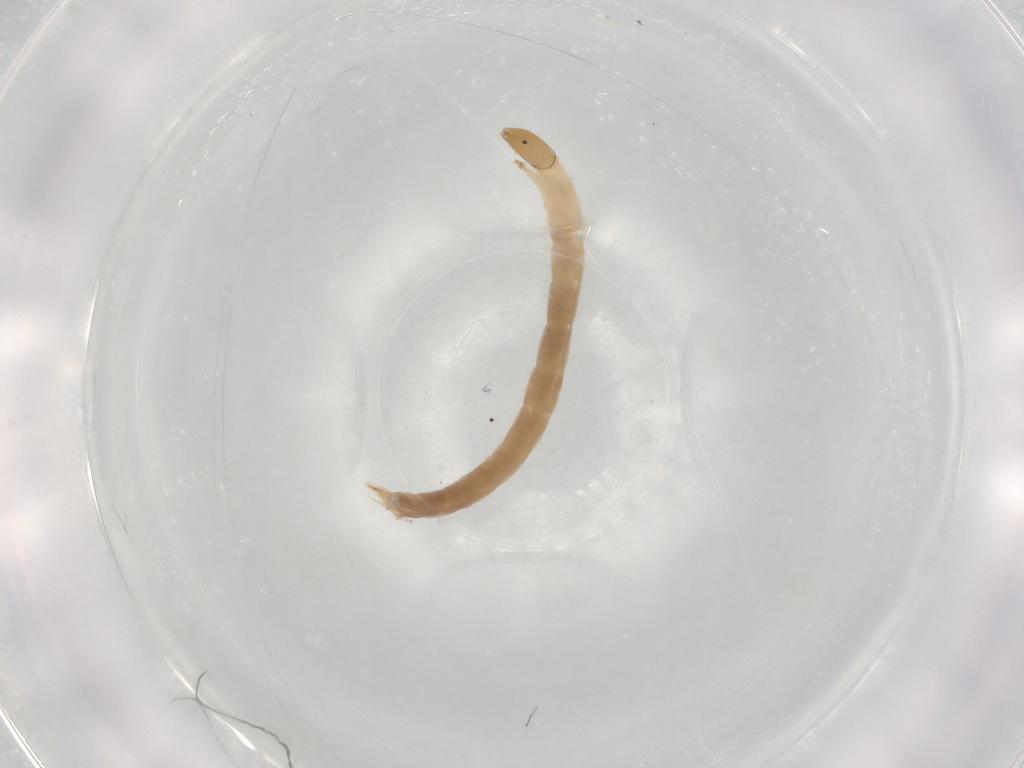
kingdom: Animalia
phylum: Arthropoda
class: Insecta
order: Diptera
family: Chironomidae
